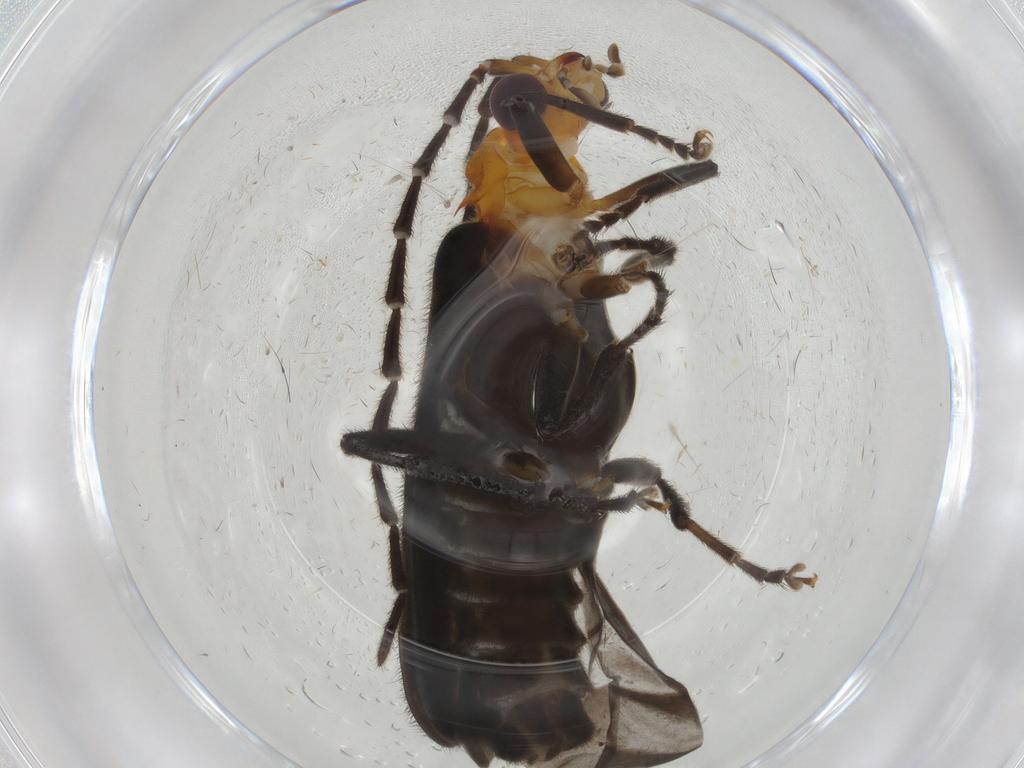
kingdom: Animalia
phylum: Arthropoda
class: Insecta
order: Coleoptera
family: Cantharidae
